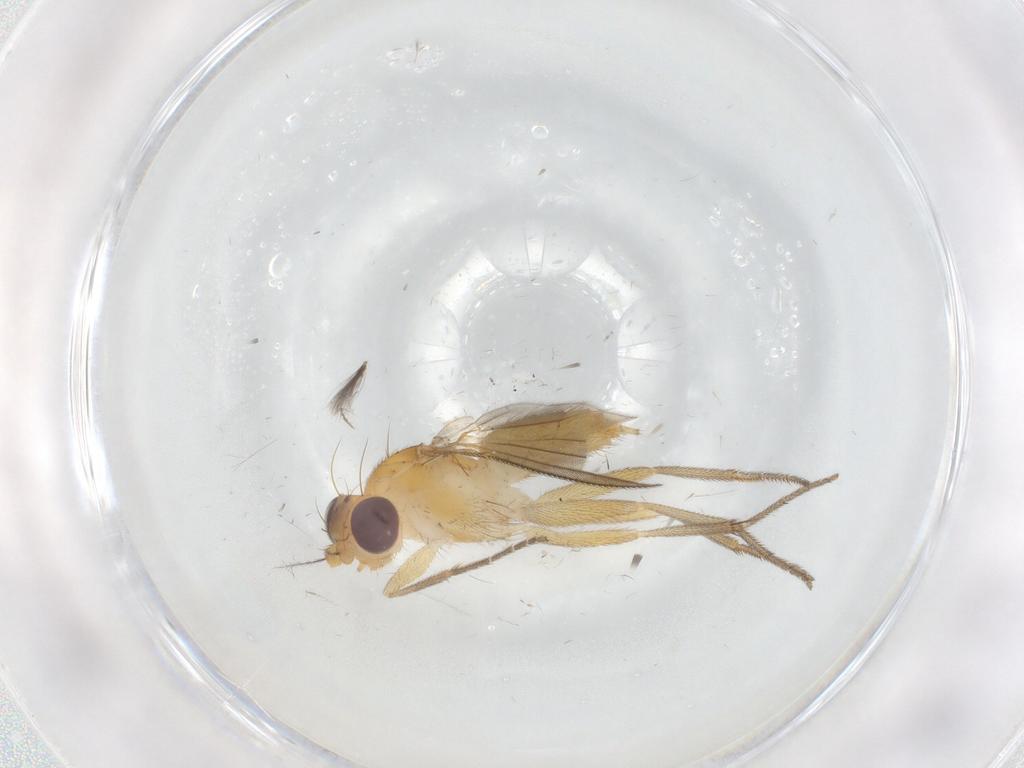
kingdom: Animalia
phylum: Arthropoda
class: Insecta
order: Diptera
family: Clusiidae
